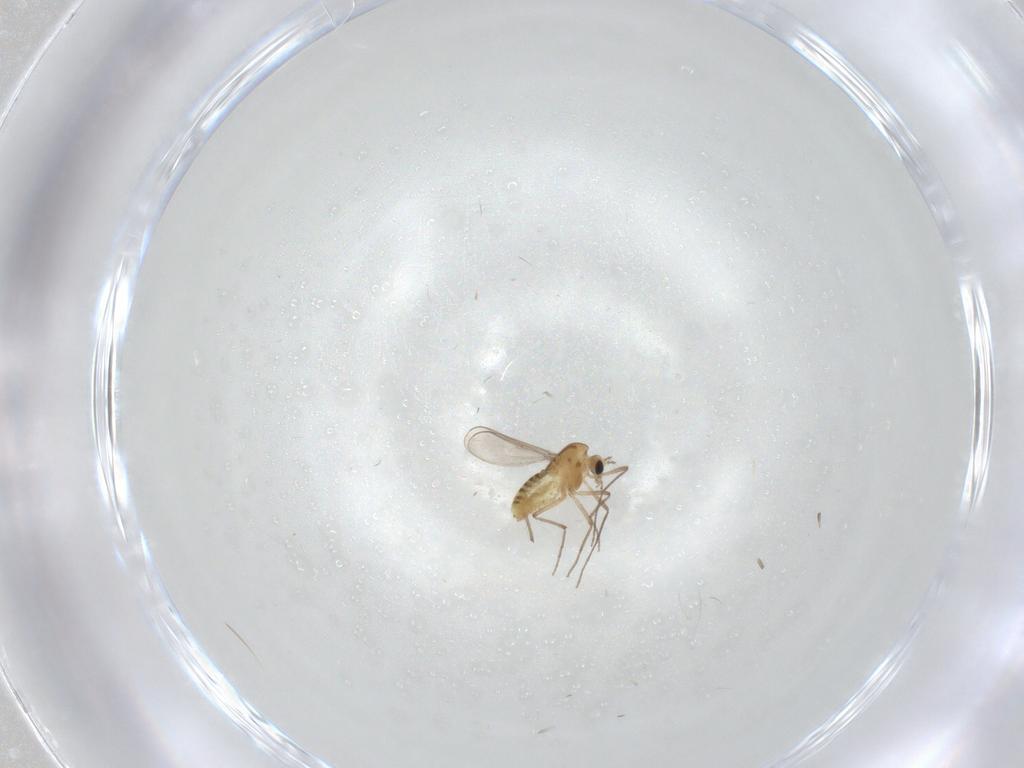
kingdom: Animalia
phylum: Arthropoda
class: Insecta
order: Diptera
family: Chironomidae
